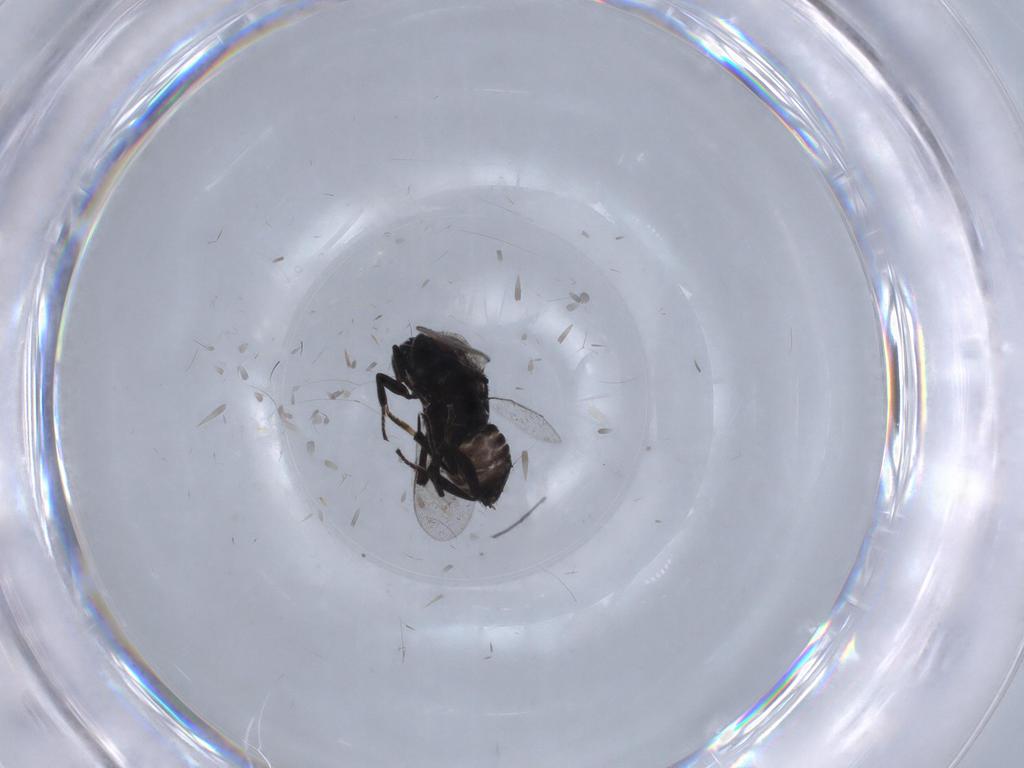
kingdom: Animalia
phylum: Arthropoda
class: Insecta
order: Diptera
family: Ceratopogonidae
